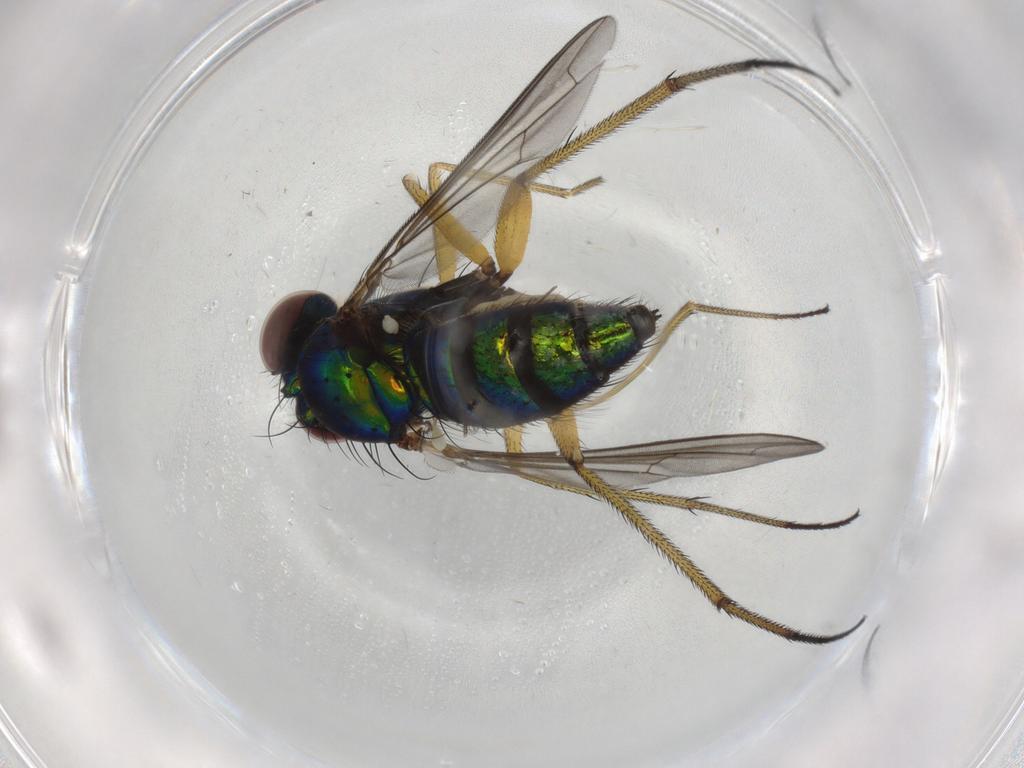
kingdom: Animalia
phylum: Arthropoda
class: Insecta
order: Diptera
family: Dolichopodidae
